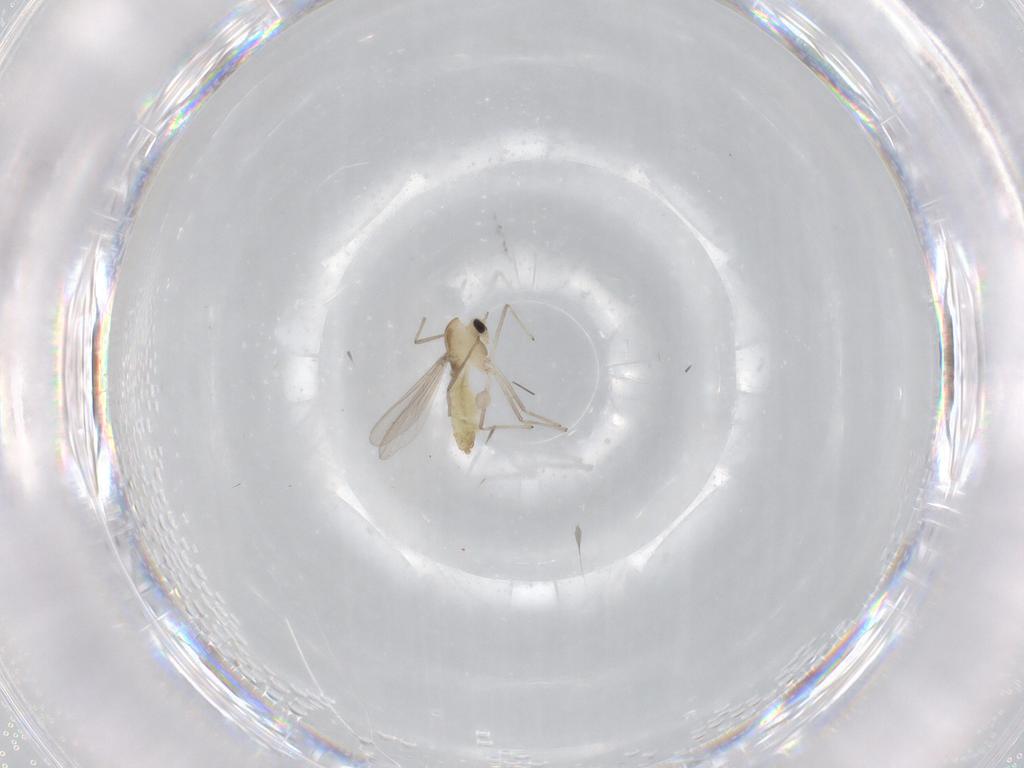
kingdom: Animalia
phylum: Arthropoda
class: Insecta
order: Diptera
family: Chironomidae
